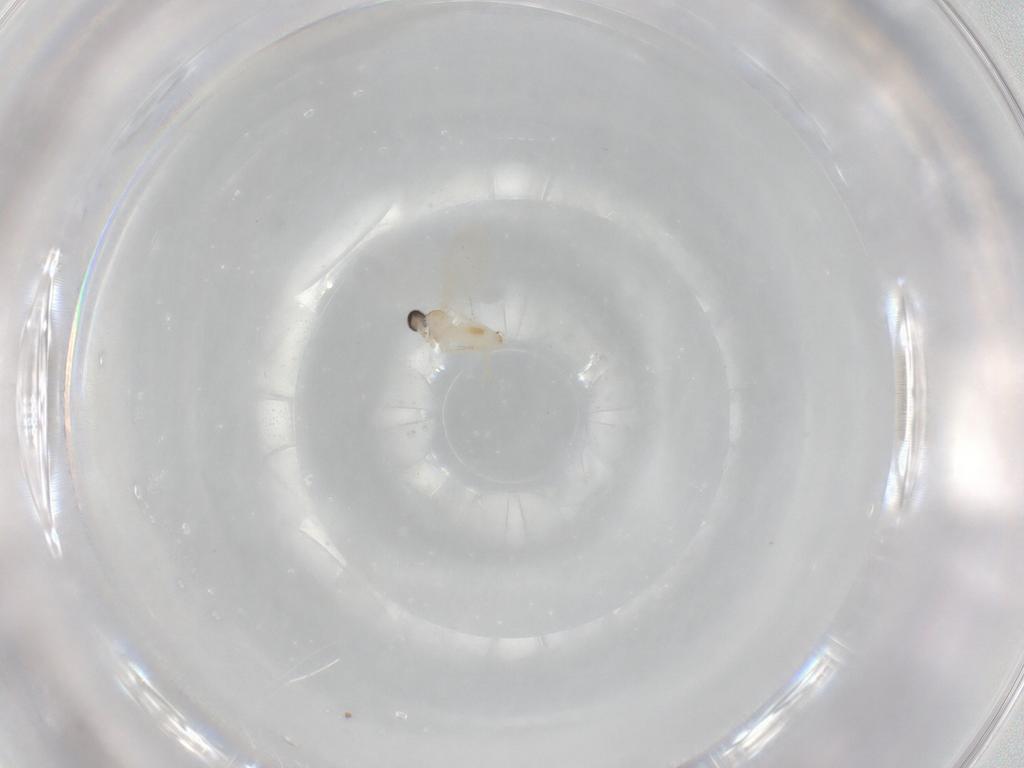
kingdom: Animalia
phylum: Arthropoda
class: Insecta
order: Diptera
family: Cecidomyiidae
